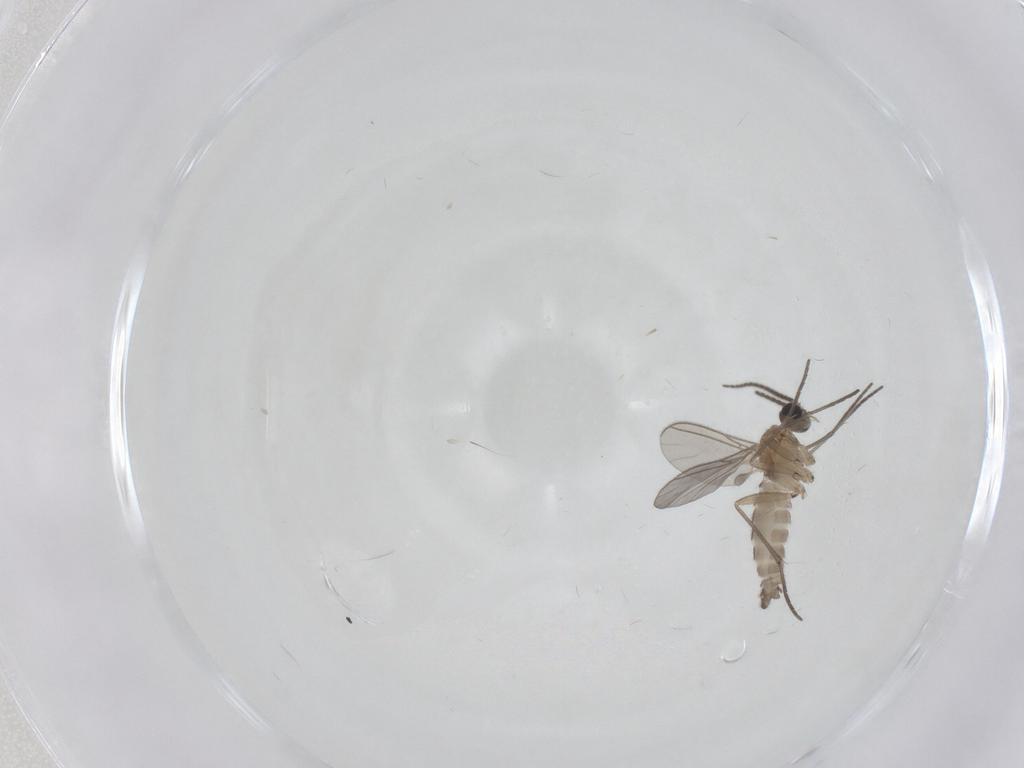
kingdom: Animalia
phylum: Arthropoda
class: Insecta
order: Diptera
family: Sciaridae
